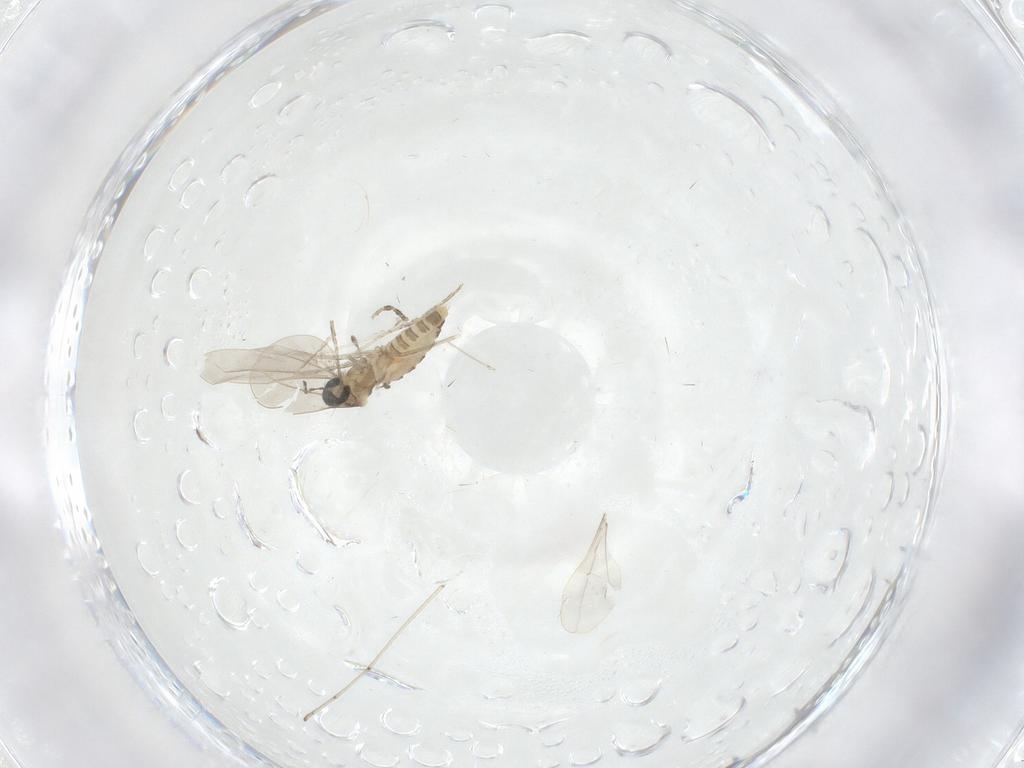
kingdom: Animalia
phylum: Arthropoda
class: Insecta
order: Diptera
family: Cecidomyiidae
